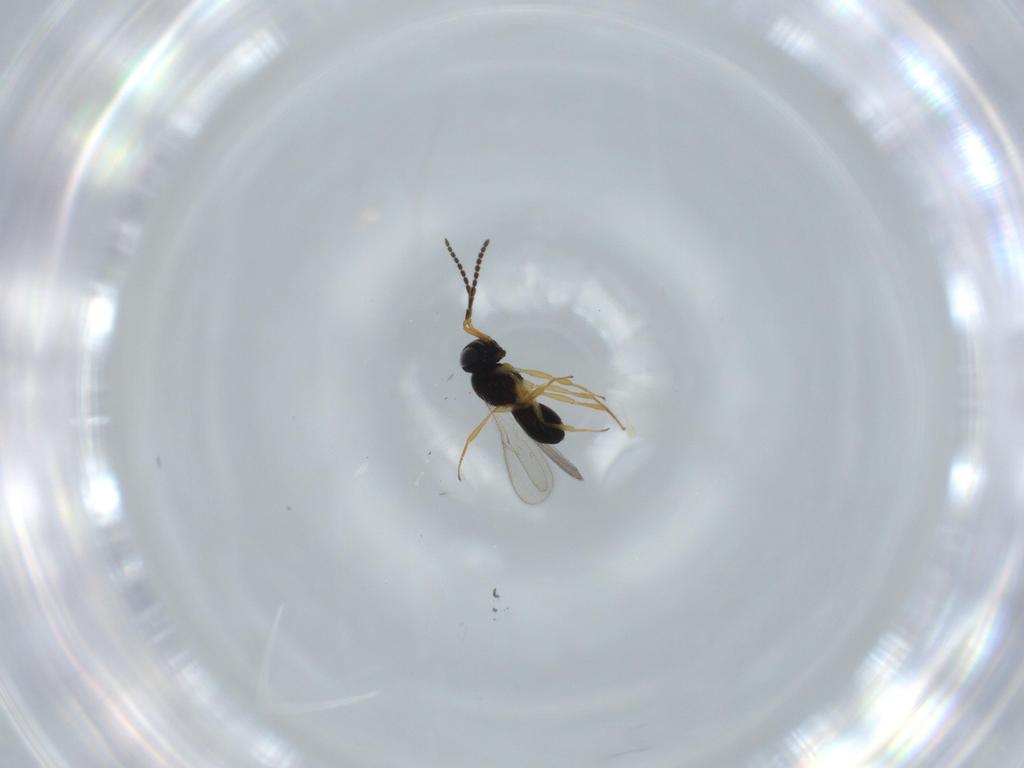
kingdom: Animalia
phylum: Arthropoda
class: Insecta
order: Hymenoptera
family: Scelionidae
